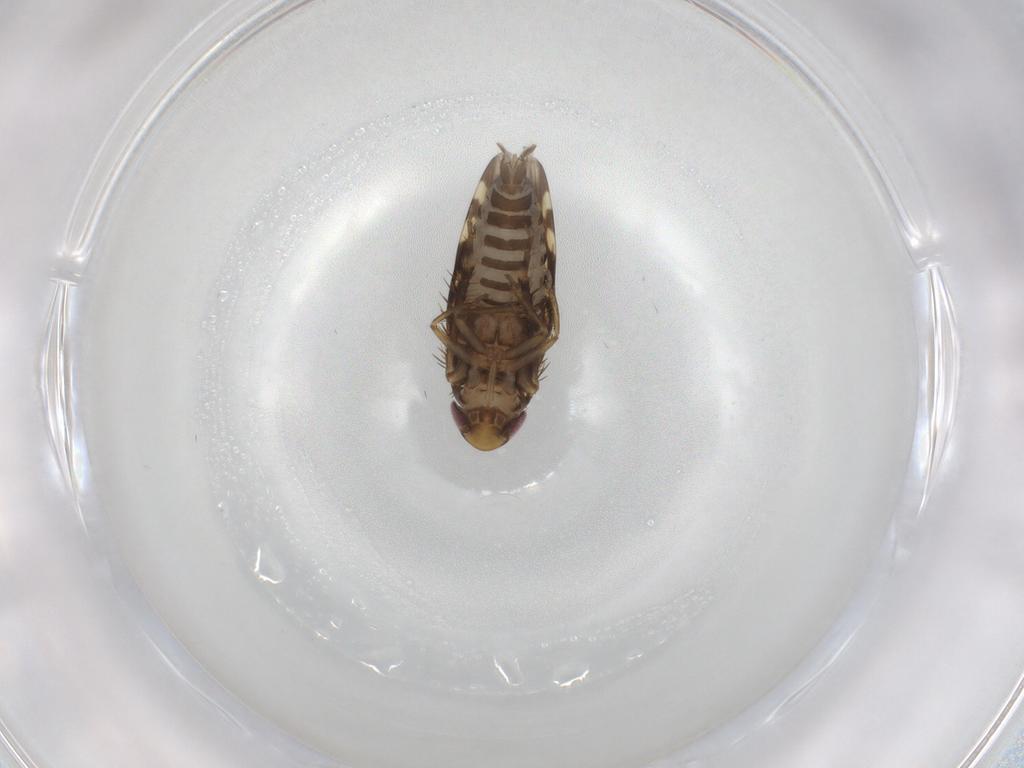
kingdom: Animalia
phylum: Arthropoda
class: Insecta
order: Hemiptera
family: Cicadellidae
